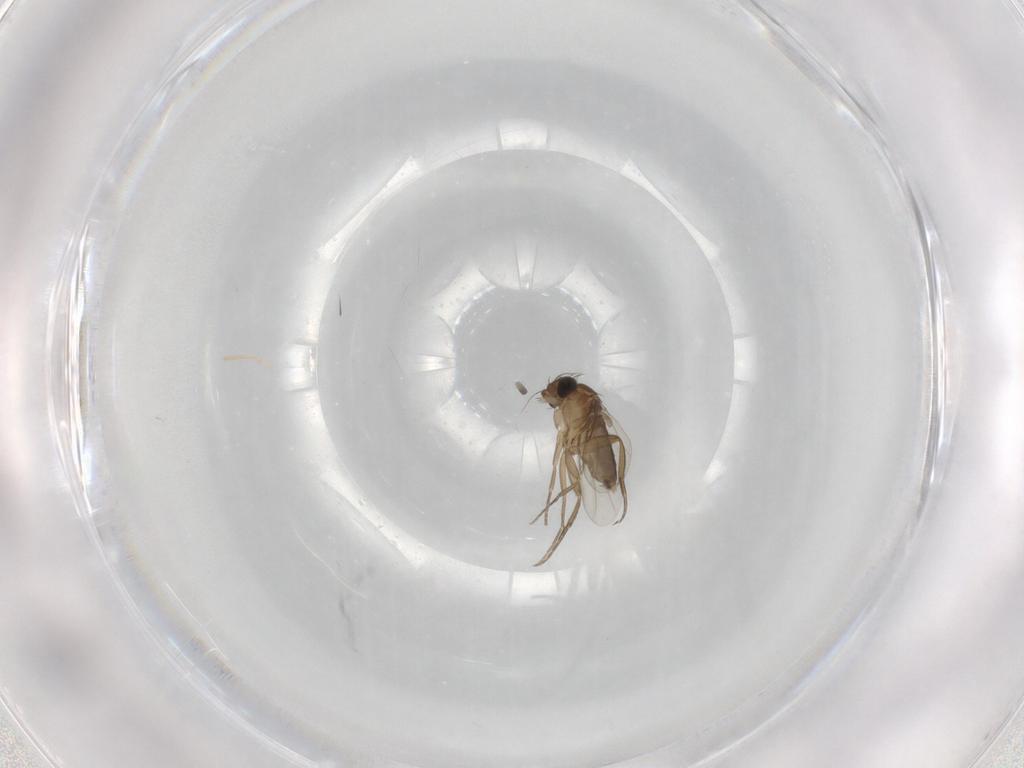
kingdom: Animalia
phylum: Arthropoda
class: Insecta
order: Diptera
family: Phoridae
